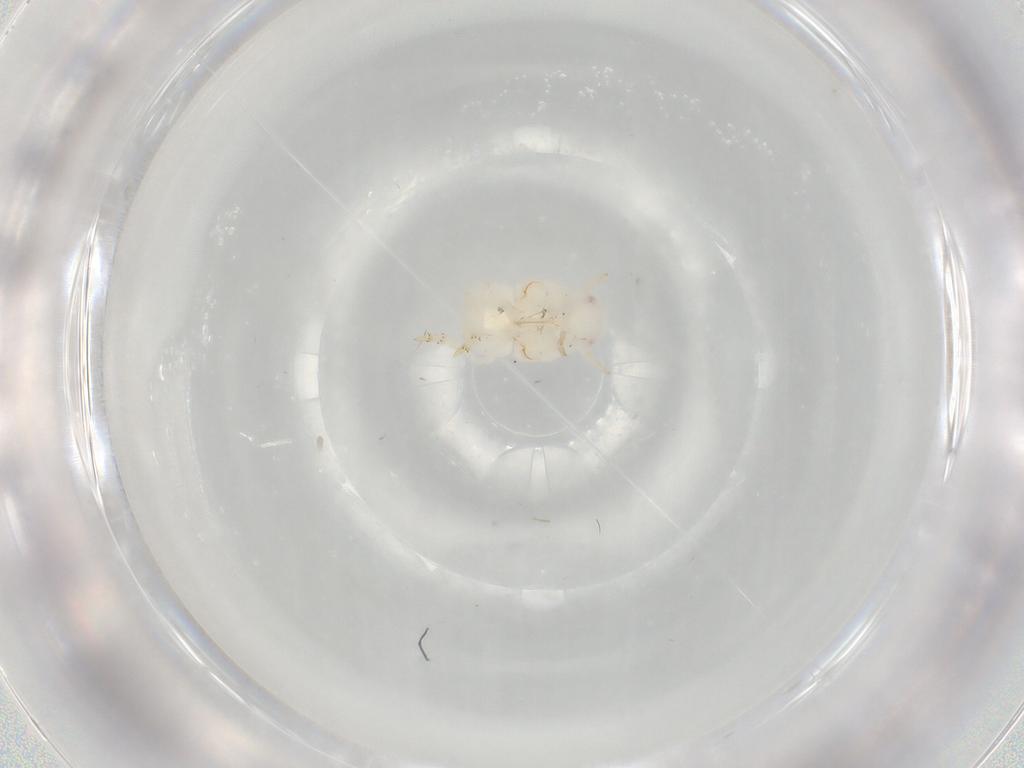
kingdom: Animalia
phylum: Arthropoda
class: Insecta
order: Hemiptera
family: Flatidae
